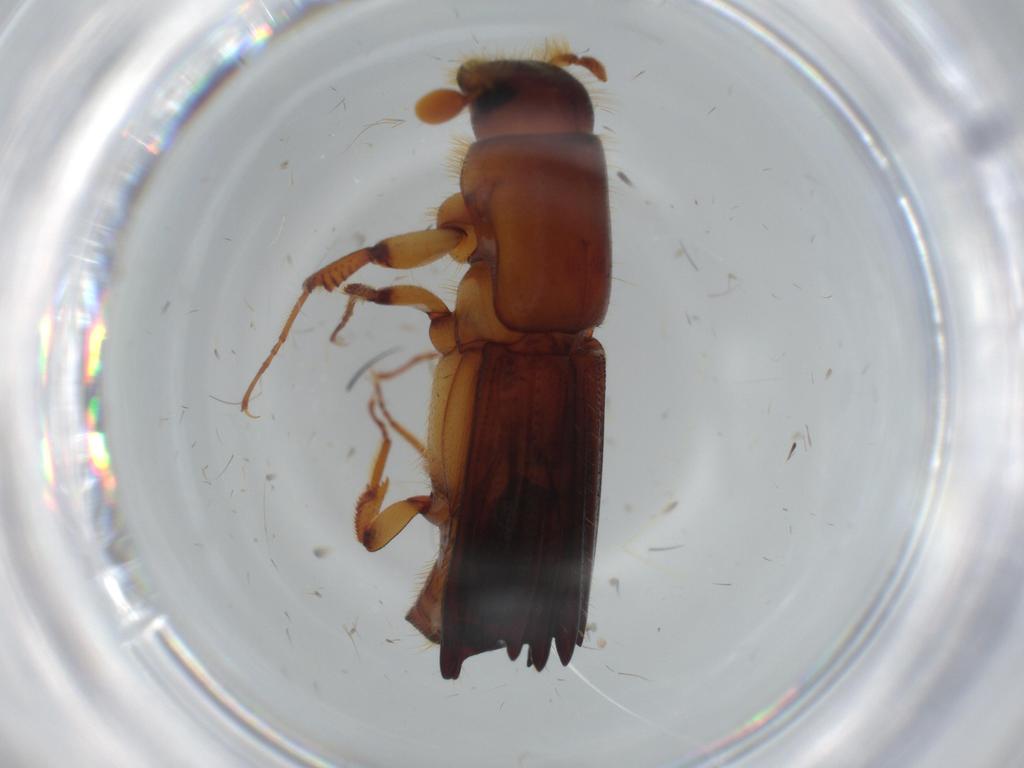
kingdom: Animalia
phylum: Arthropoda
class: Insecta
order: Coleoptera
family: Curculionidae
